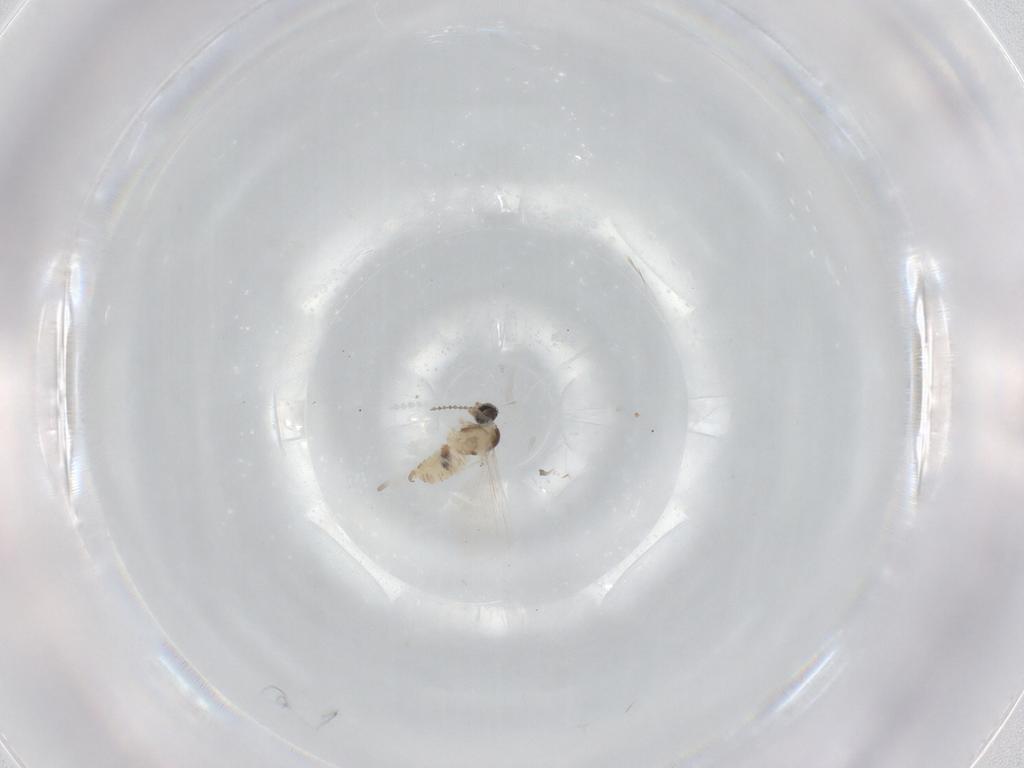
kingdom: Animalia
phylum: Arthropoda
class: Insecta
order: Diptera
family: Cecidomyiidae
